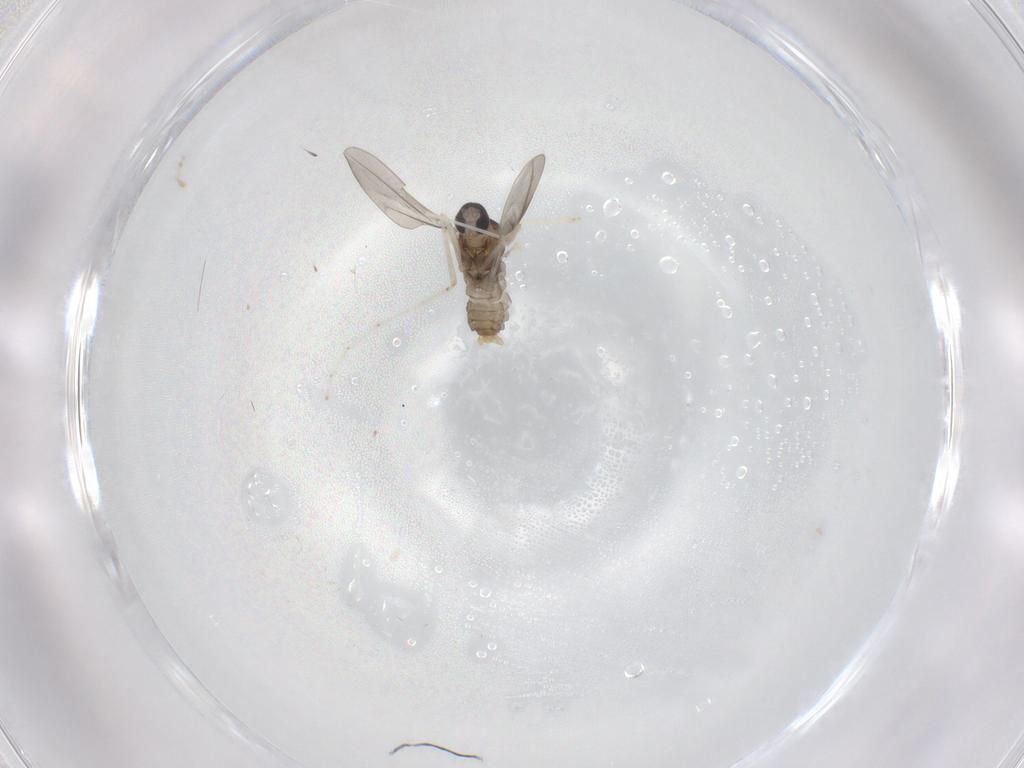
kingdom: Animalia
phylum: Arthropoda
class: Insecta
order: Diptera
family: Cecidomyiidae
